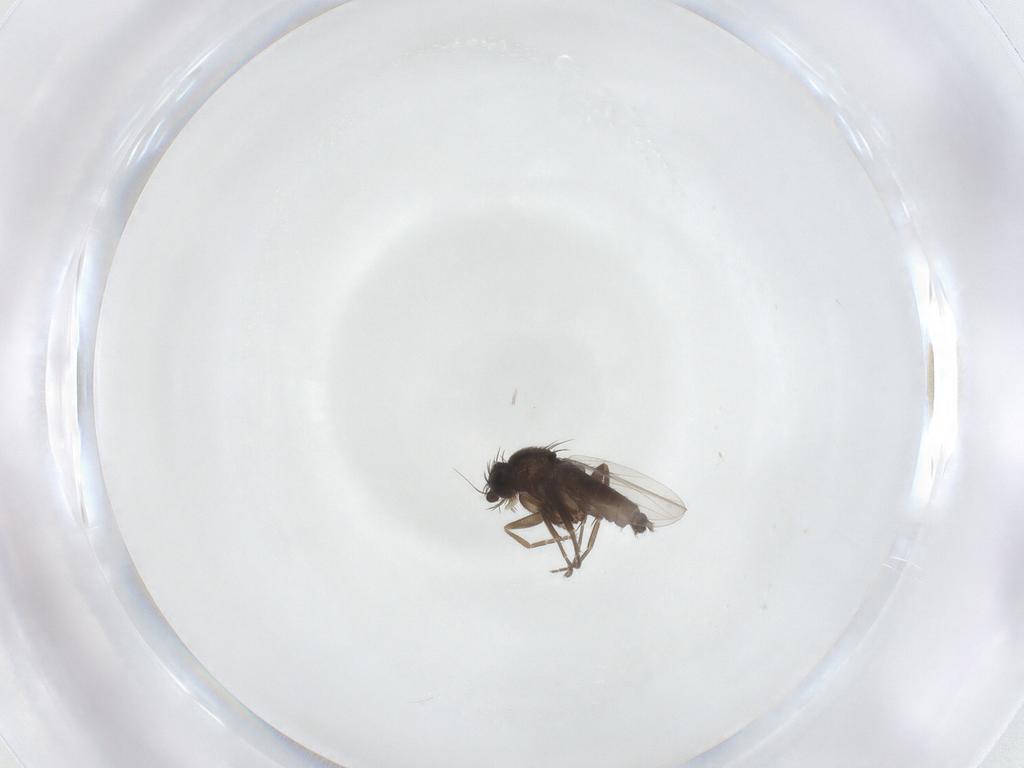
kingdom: Animalia
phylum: Arthropoda
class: Insecta
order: Diptera
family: Phoridae
